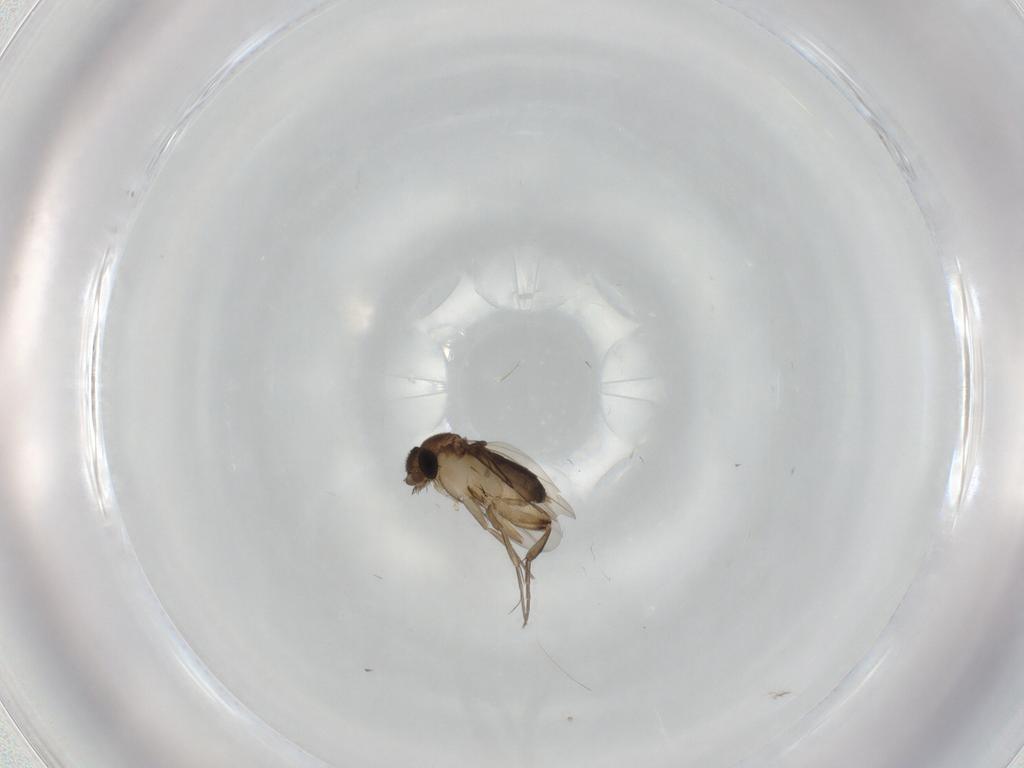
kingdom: Animalia
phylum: Arthropoda
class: Insecta
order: Diptera
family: Phoridae
